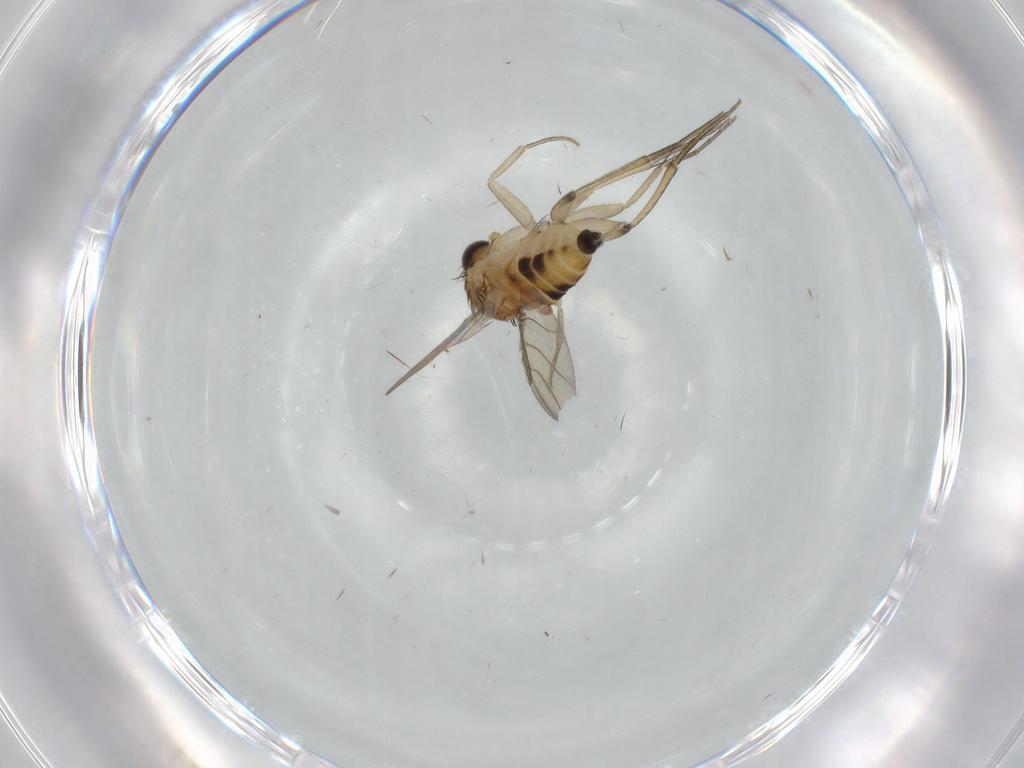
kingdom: Animalia
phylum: Arthropoda
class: Insecta
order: Diptera
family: Phoridae
